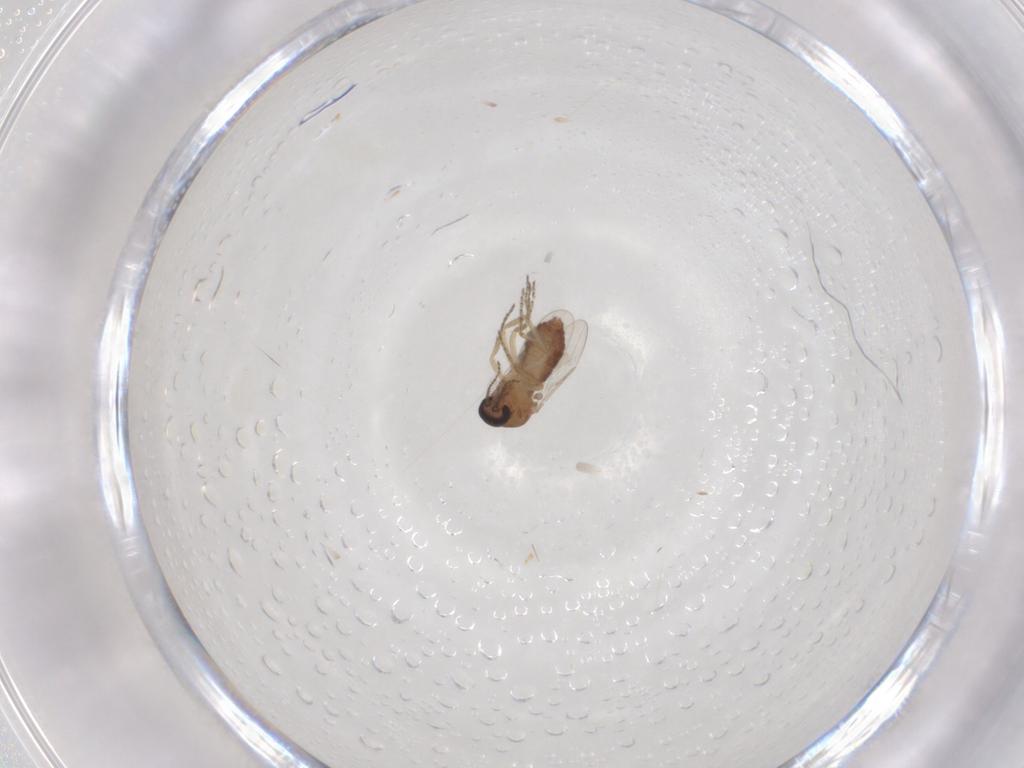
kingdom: Animalia
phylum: Arthropoda
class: Insecta
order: Diptera
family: Ceratopogonidae
